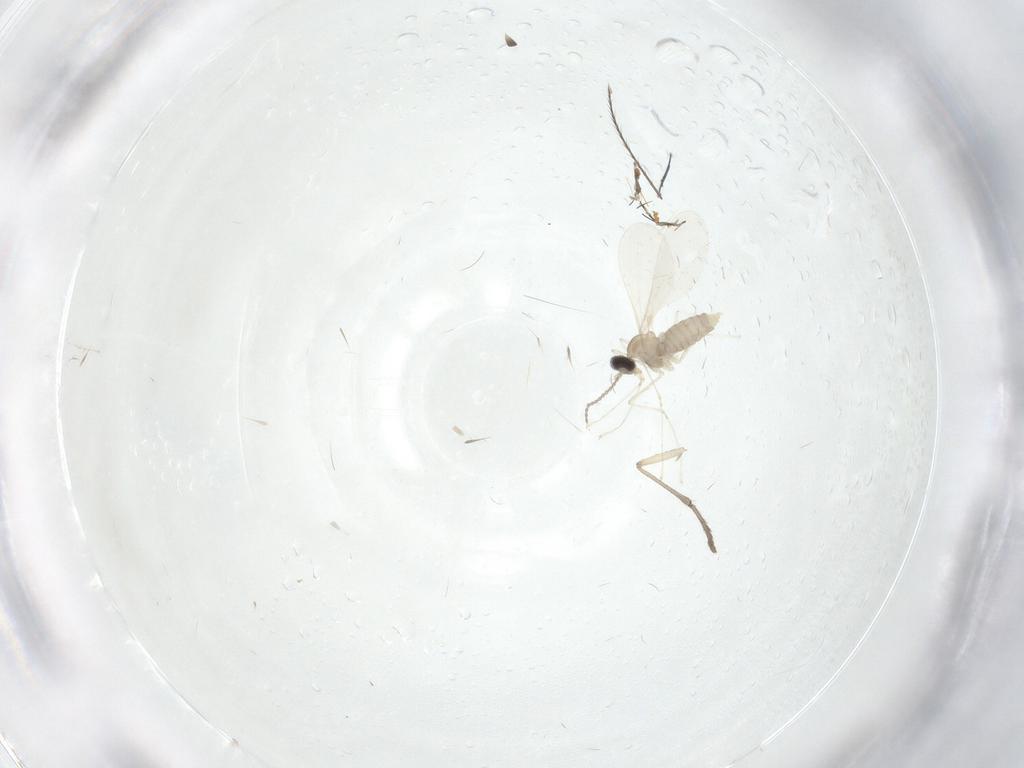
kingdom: Animalia
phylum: Arthropoda
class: Insecta
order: Diptera
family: Cecidomyiidae
